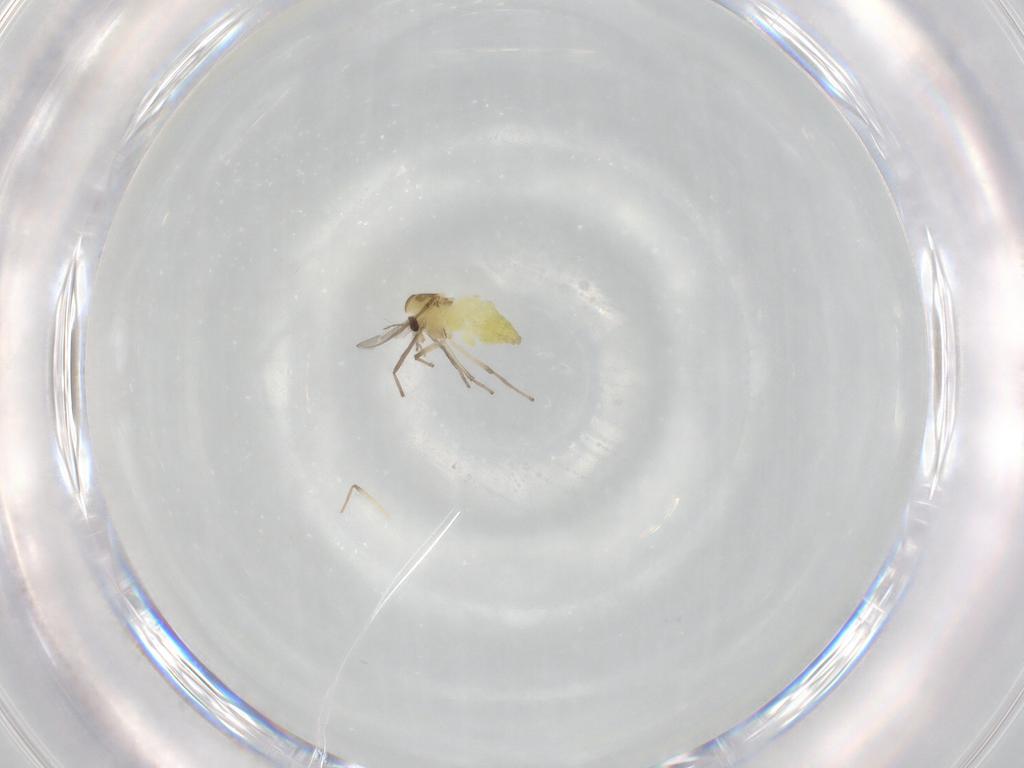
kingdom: Animalia
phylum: Arthropoda
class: Insecta
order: Diptera
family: Chironomidae
